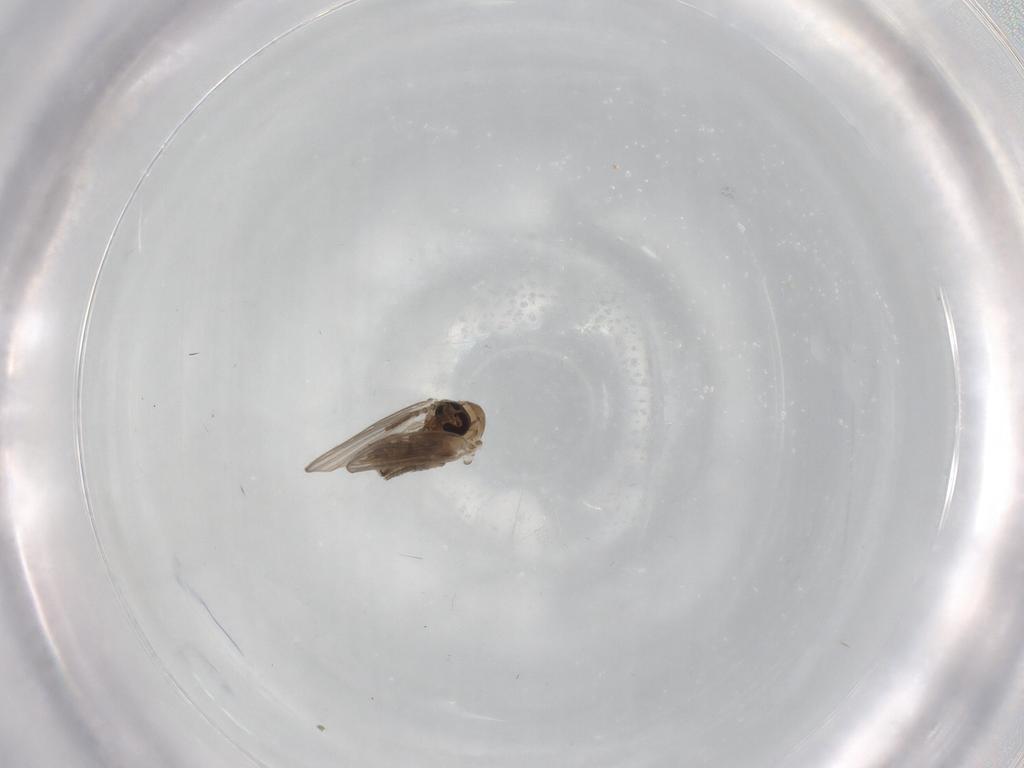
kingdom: Animalia
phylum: Arthropoda
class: Insecta
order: Diptera
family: Psychodidae
